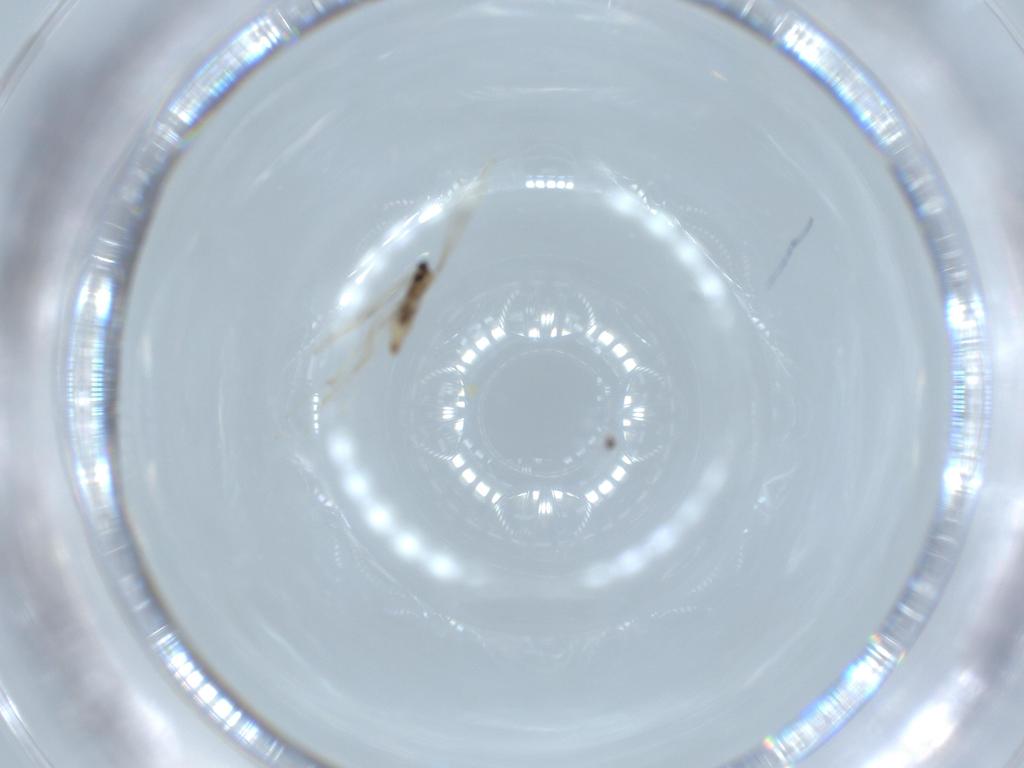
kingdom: Animalia
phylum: Arthropoda
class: Insecta
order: Diptera
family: Cecidomyiidae
